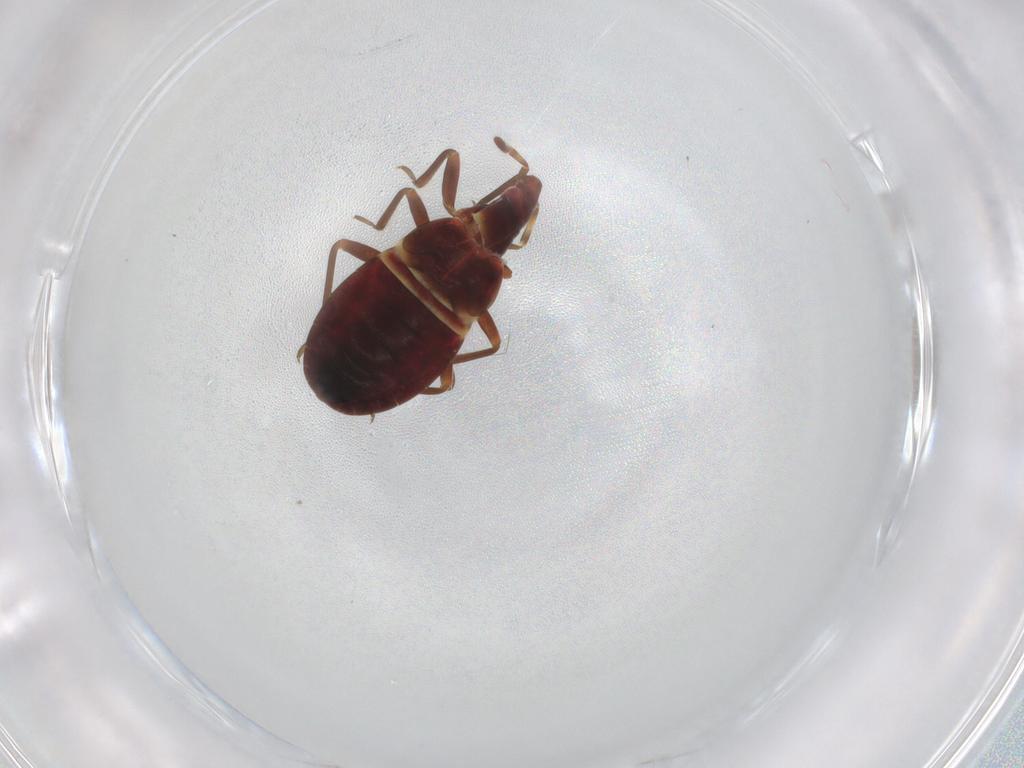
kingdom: Animalia
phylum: Arthropoda
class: Insecta
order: Hemiptera
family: Anthocoridae
